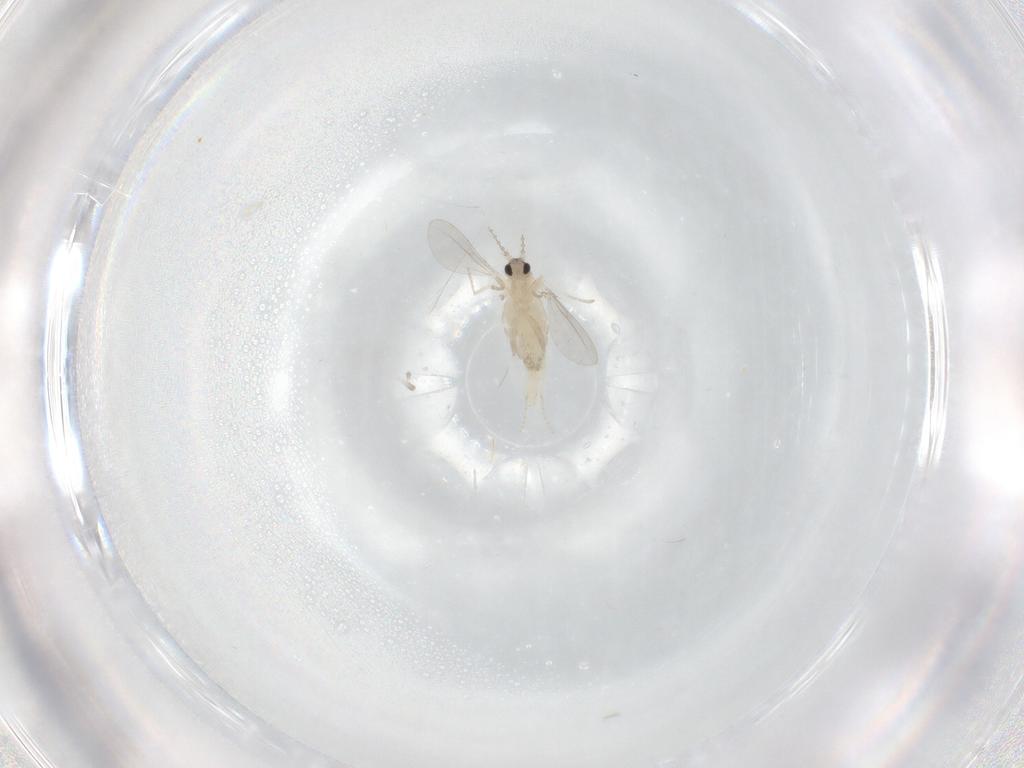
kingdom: Animalia
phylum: Arthropoda
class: Insecta
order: Diptera
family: Cecidomyiidae
